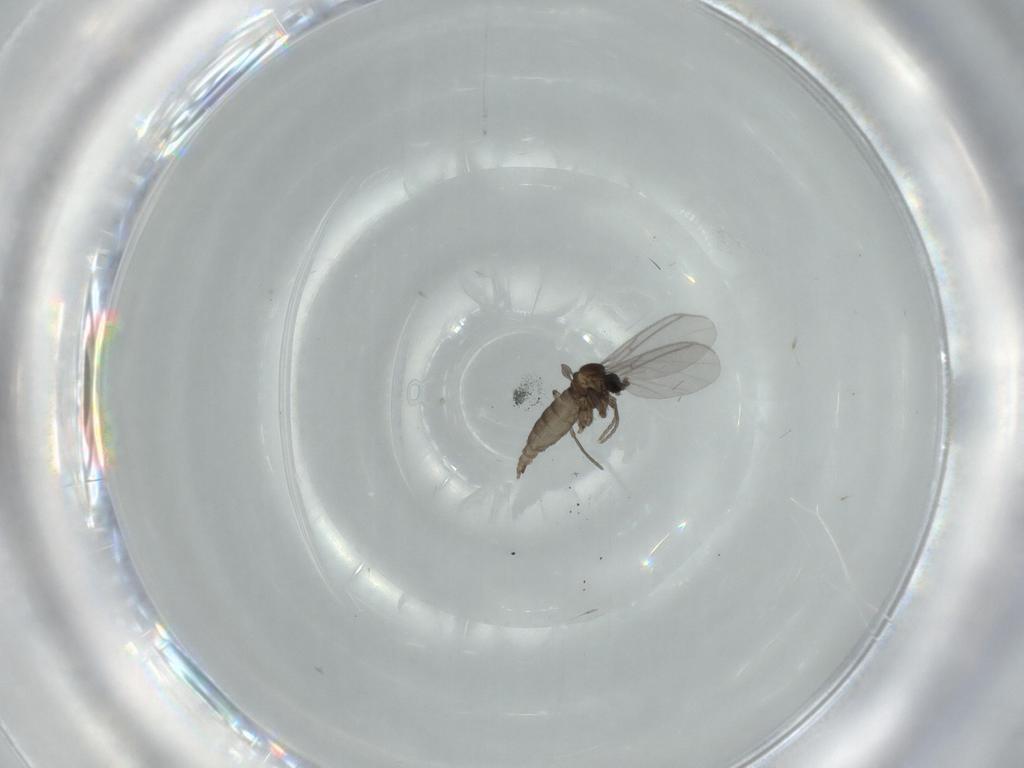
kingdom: Animalia
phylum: Arthropoda
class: Insecta
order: Diptera
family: Sciaridae
